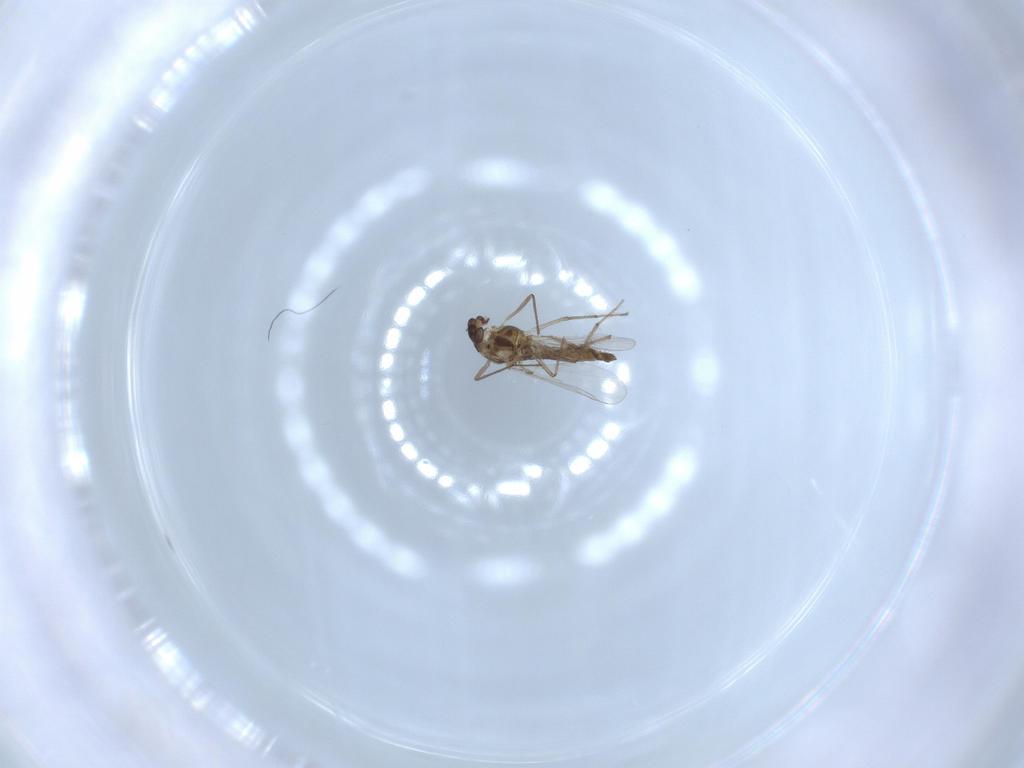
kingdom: Animalia
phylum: Arthropoda
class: Insecta
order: Diptera
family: Chironomidae
